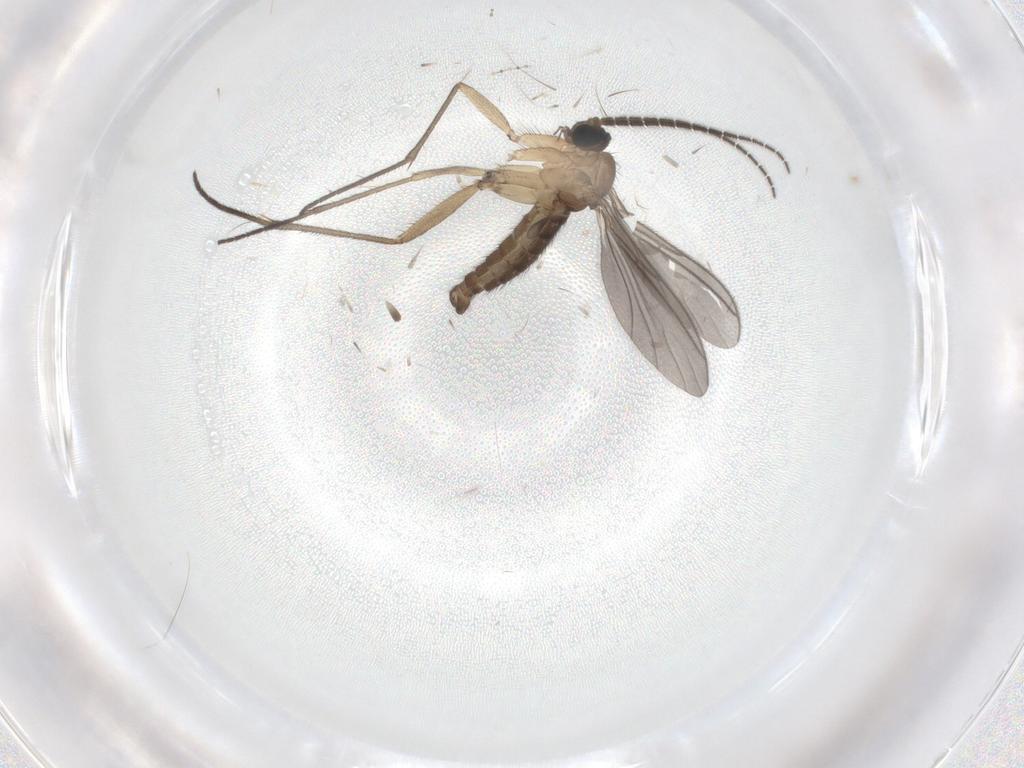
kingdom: Animalia
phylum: Arthropoda
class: Insecta
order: Diptera
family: Sciaridae
